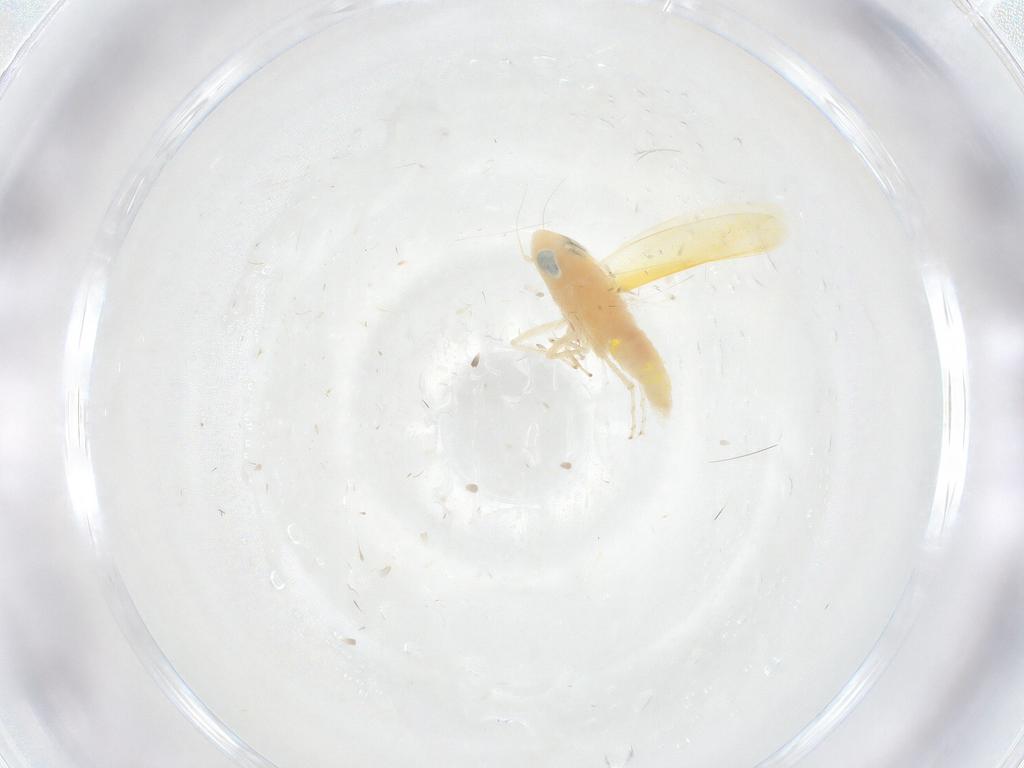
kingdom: Animalia
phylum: Arthropoda
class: Insecta
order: Hemiptera
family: Cicadellidae
